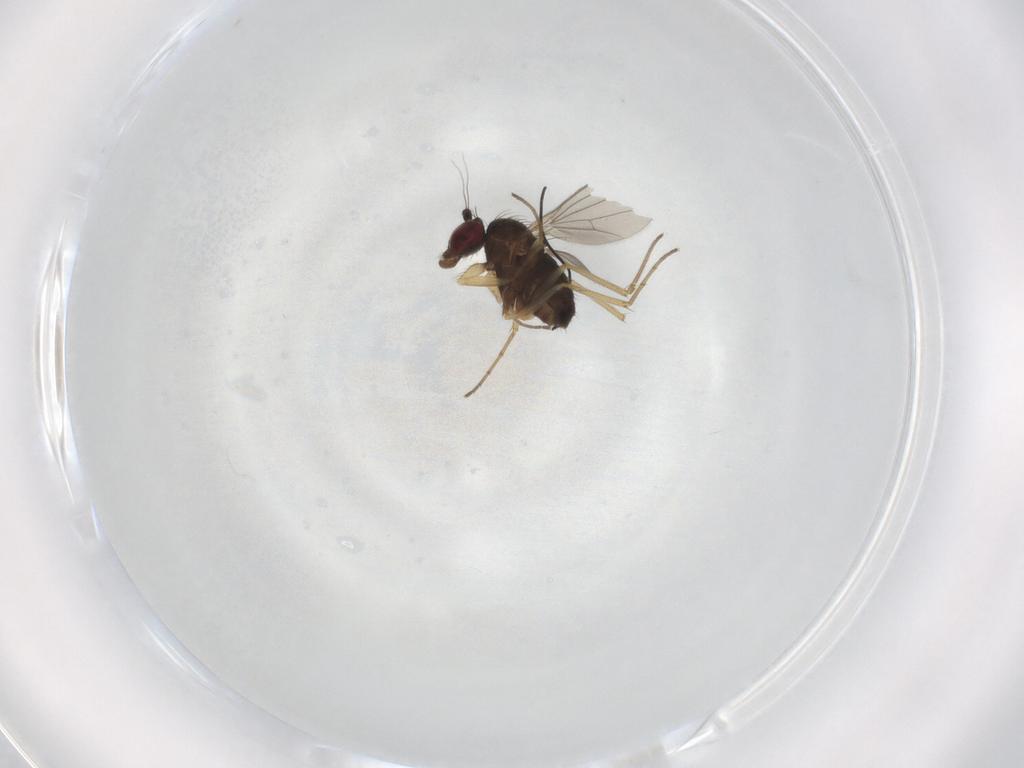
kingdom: Animalia
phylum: Arthropoda
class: Insecta
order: Diptera
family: Dolichopodidae
